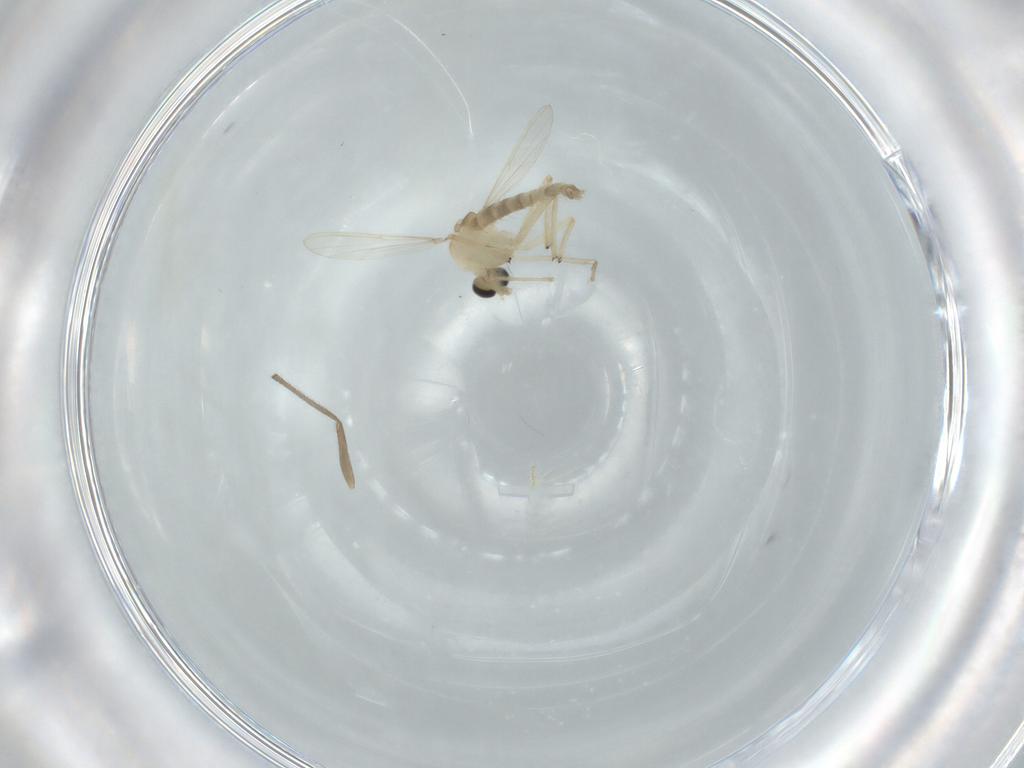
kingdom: Animalia
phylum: Arthropoda
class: Insecta
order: Diptera
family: Chironomidae
